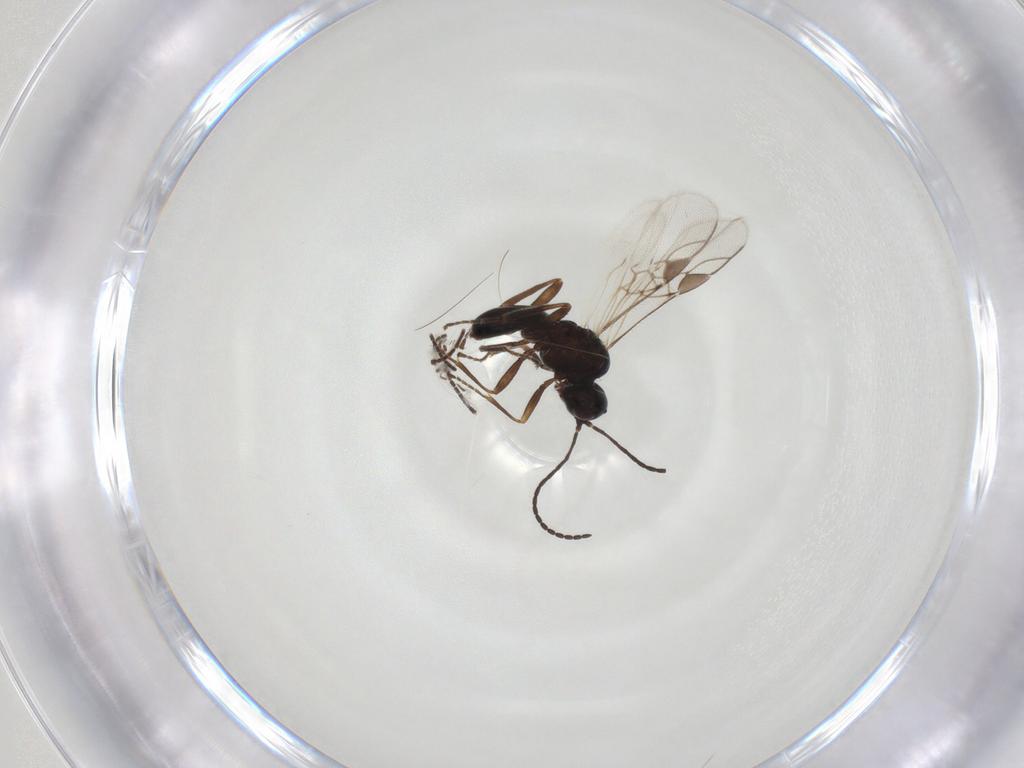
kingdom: Animalia
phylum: Arthropoda
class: Insecta
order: Hymenoptera
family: Braconidae
